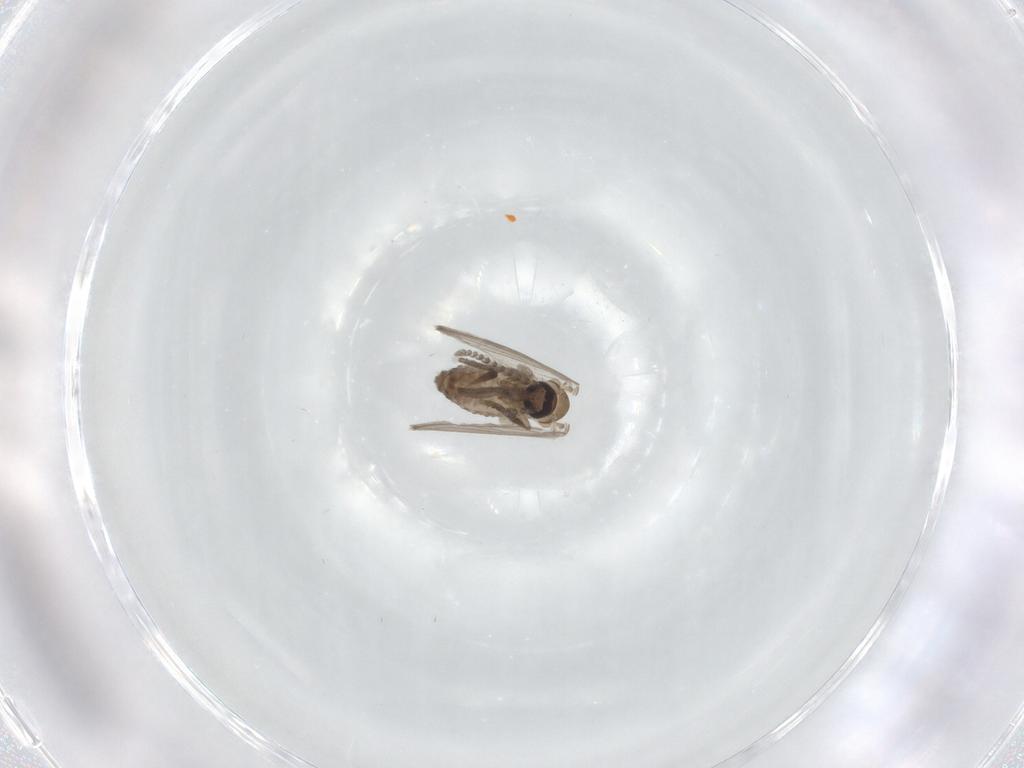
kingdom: Animalia
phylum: Arthropoda
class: Insecta
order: Diptera
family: Psychodidae
